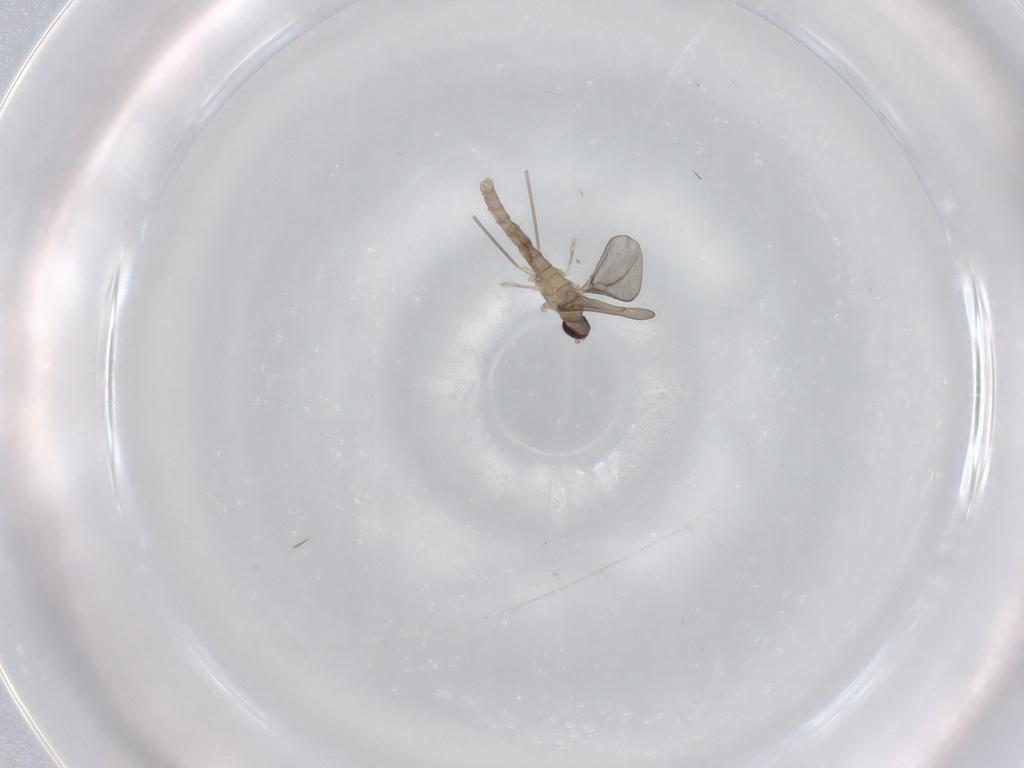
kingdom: Animalia
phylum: Arthropoda
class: Insecta
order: Diptera
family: Cecidomyiidae
